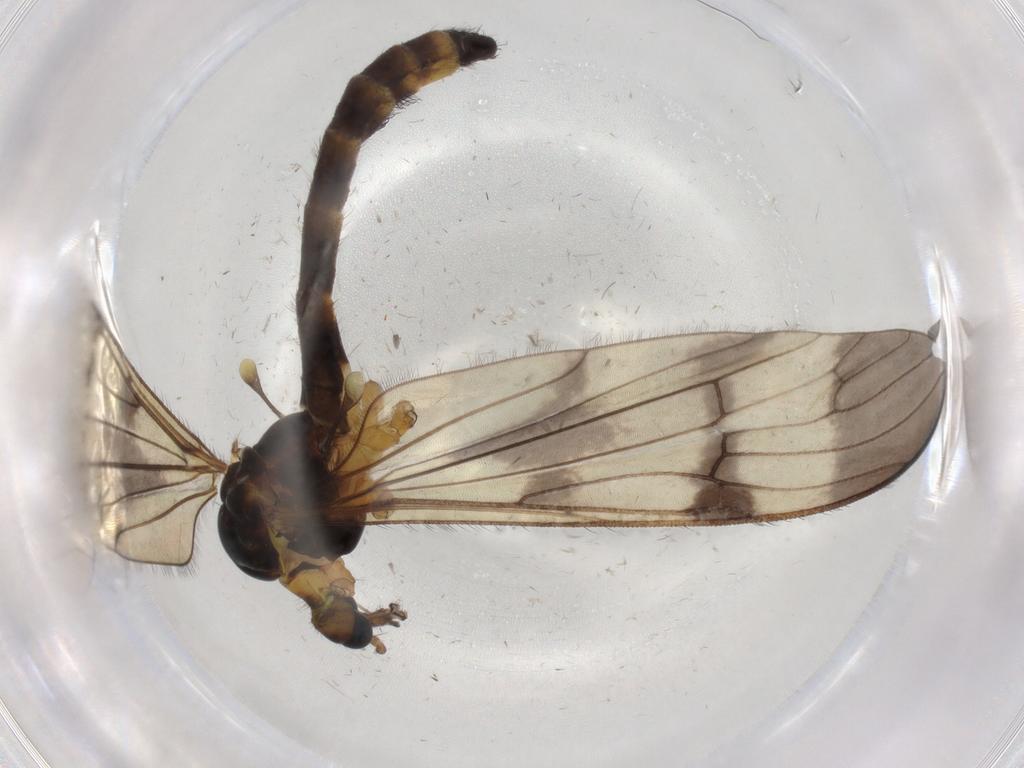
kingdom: Animalia
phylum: Arthropoda
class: Insecta
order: Diptera
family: Limoniidae
